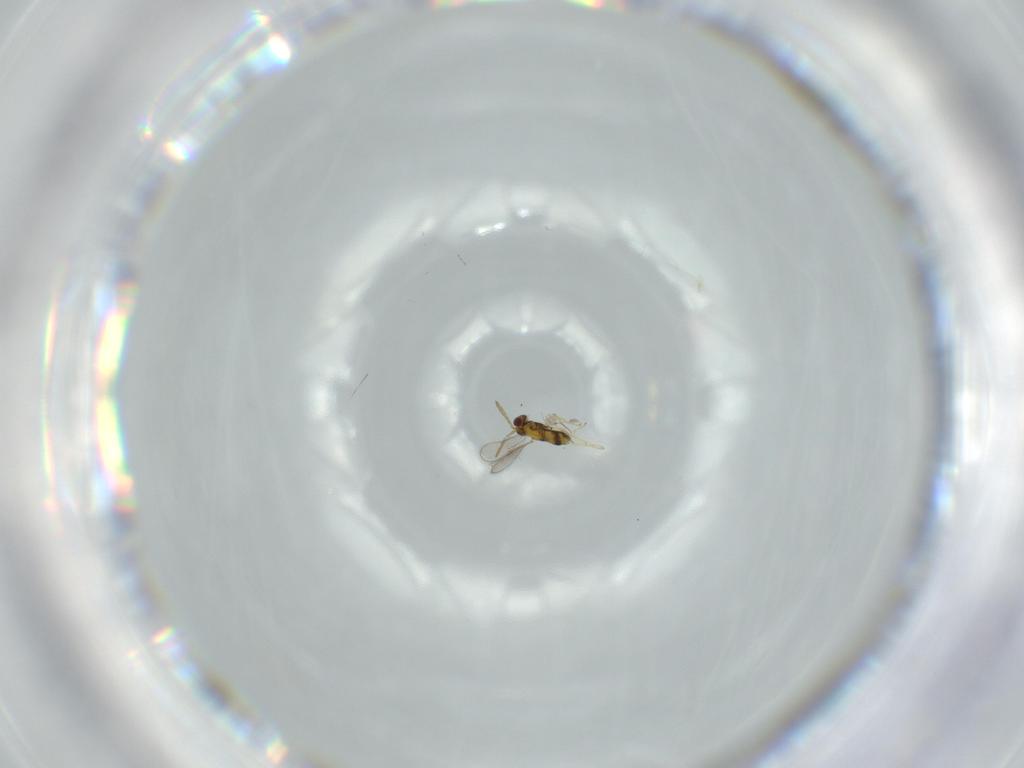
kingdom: Animalia
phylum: Arthropoda
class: Insecta
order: Hymenoptera
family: Aphelinidae
